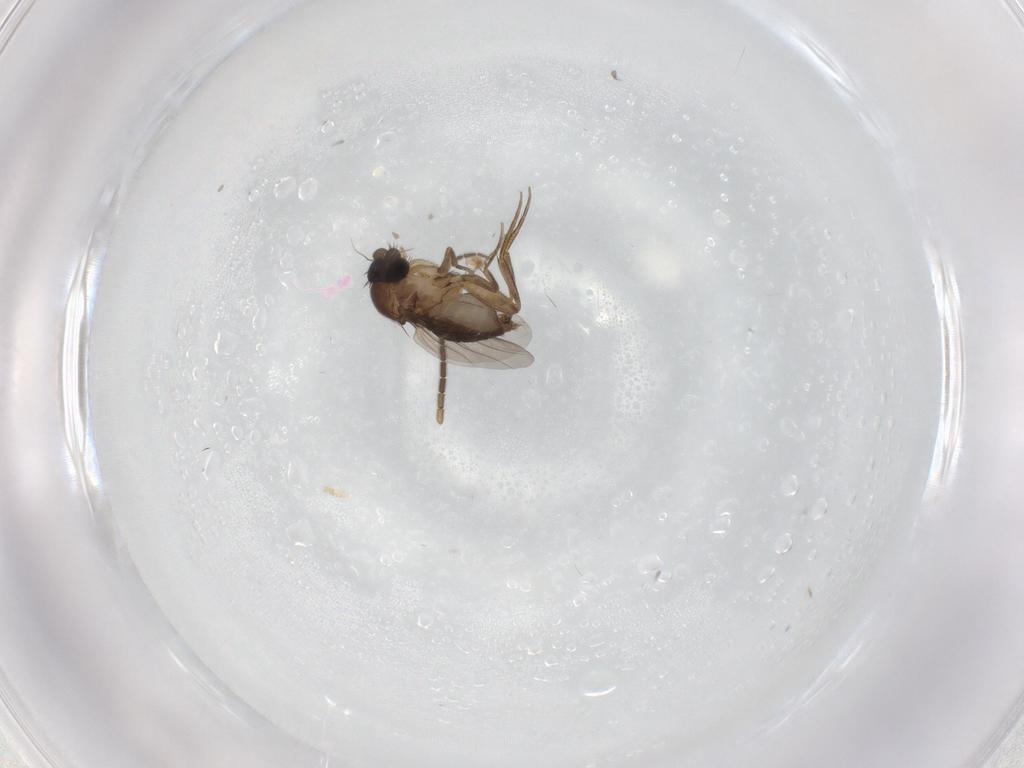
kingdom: Animalia
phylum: Arthropoda
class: Insecta
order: Diptera
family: Phoridae
